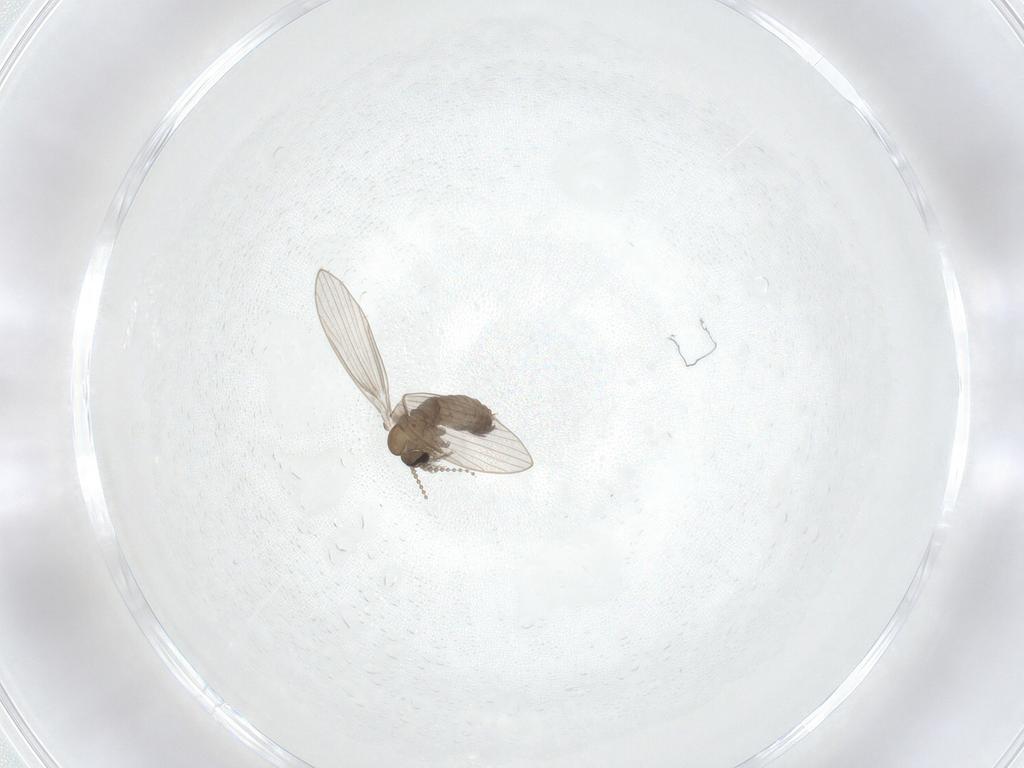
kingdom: Animalia
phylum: Arthropoda
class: Insecta
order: Diptera
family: Psychodidae
